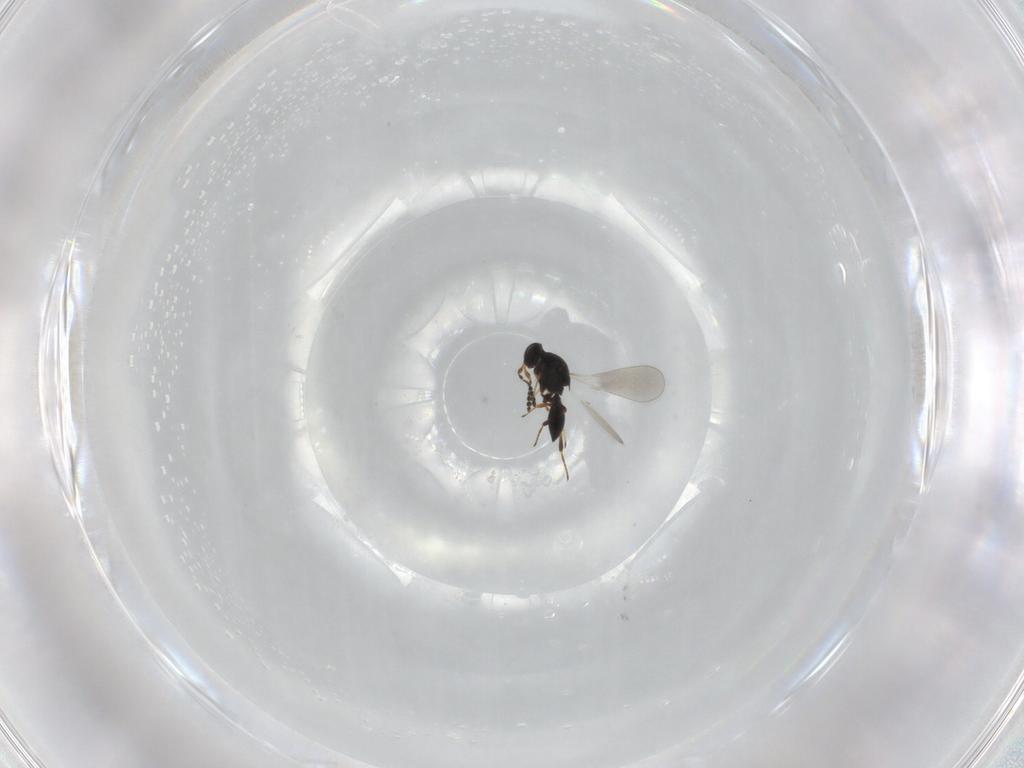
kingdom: Animalia
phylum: Arthropoda
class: Insecta
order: Hymenoptera
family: Platygastridae
